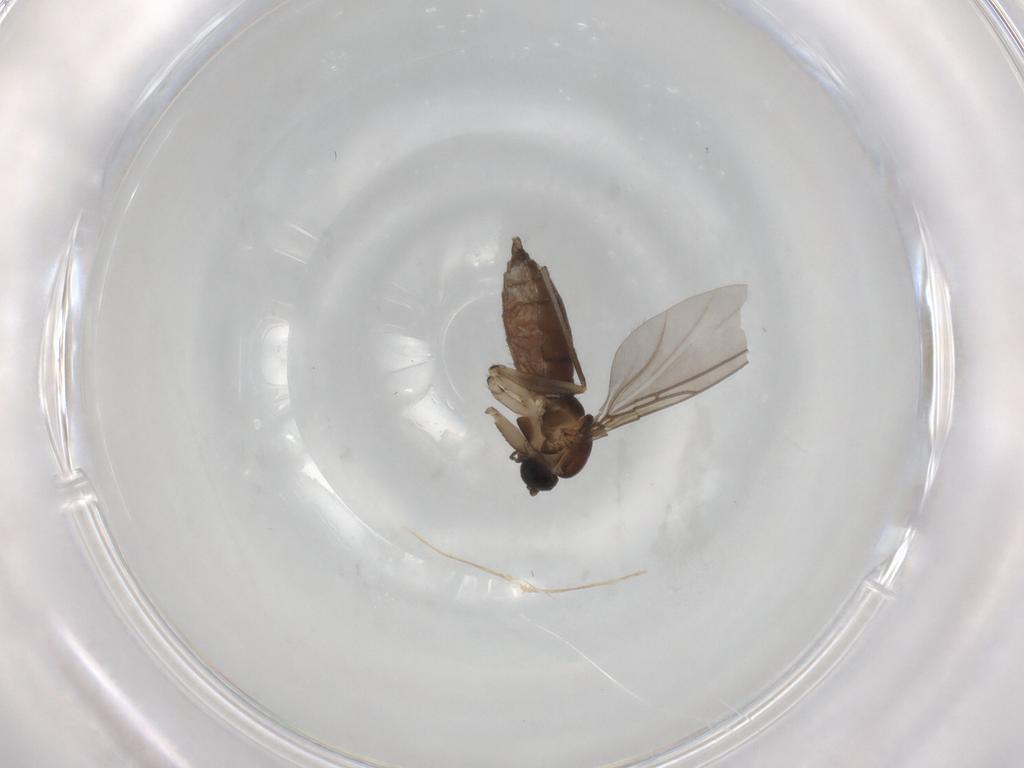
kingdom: Animalia
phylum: Arthropoda
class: Insecta
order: Diptera
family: Sciaridae
